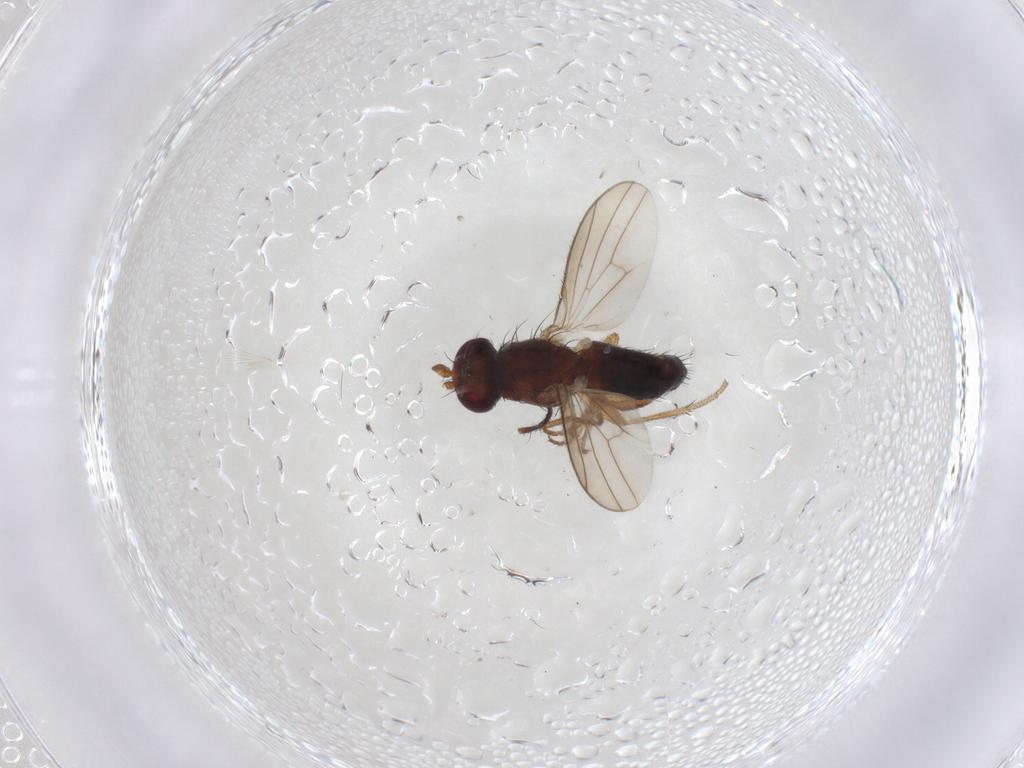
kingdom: Animalia
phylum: Arthropoda
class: Insecta
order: Diptera
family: Heleomyzidae
